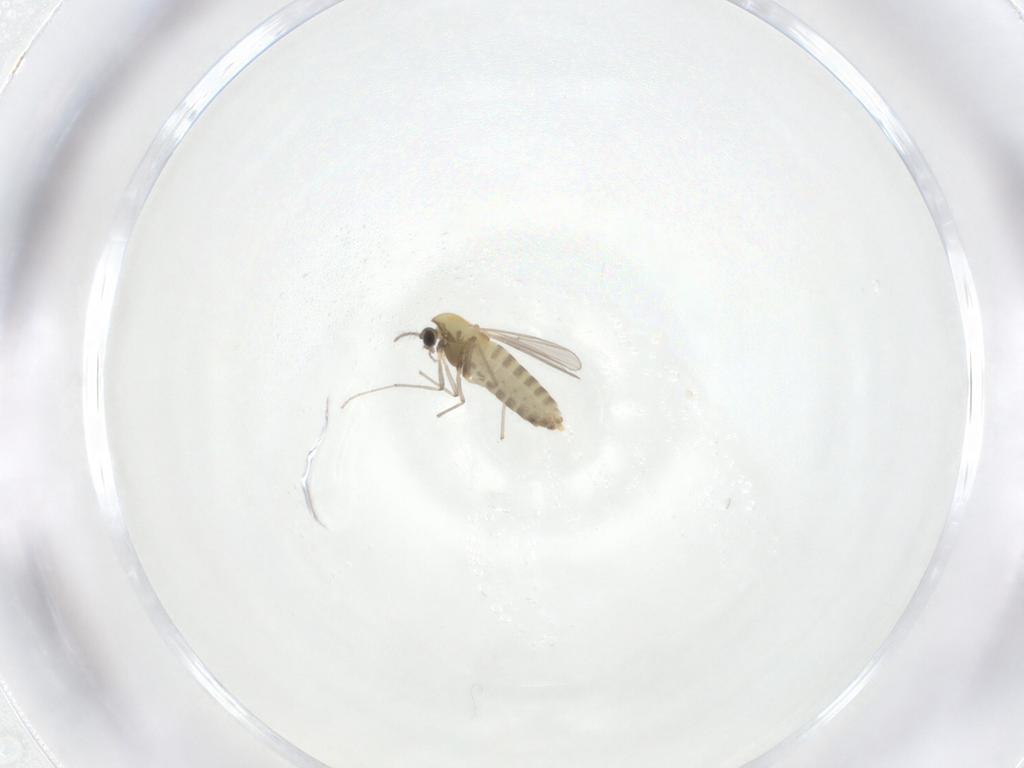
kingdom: Animalia
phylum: Arthropoda
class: Insecta
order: Diptera
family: Chironomidae
